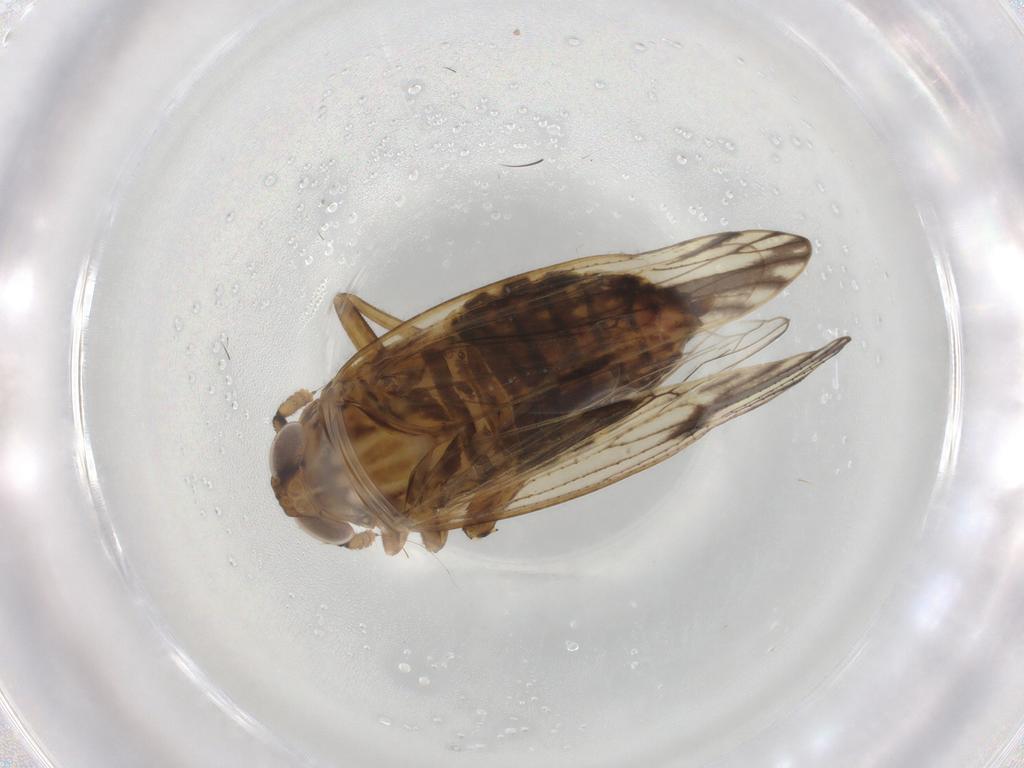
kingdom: Animalia
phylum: Arthropoda
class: Insecta
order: Hemiptera
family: Delphacidae
